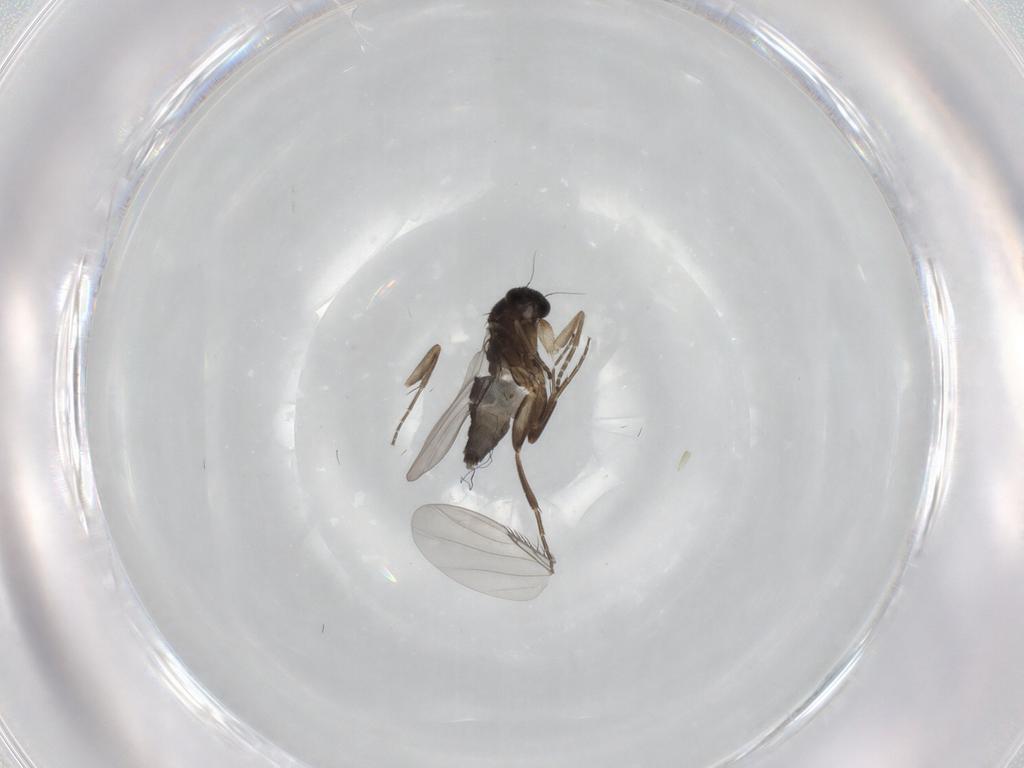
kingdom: Animalia
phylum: Arthropoda
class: Insecta
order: Diptera
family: Phoridae
